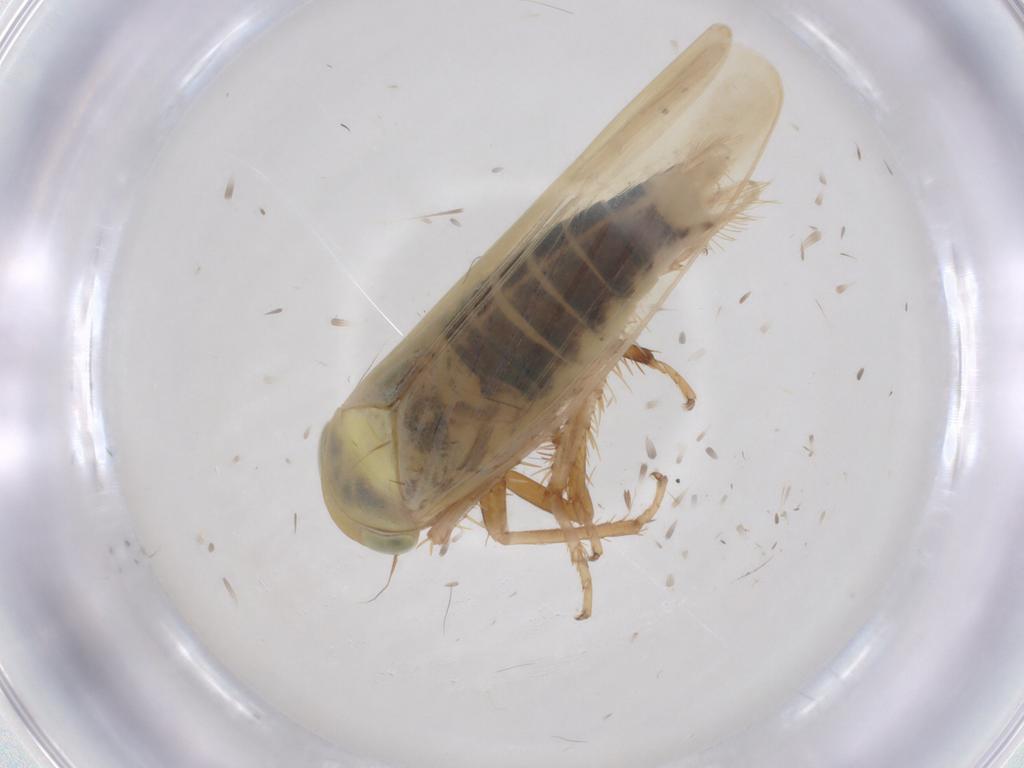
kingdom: Animalia
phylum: Arthropoda
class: Insecta
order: Hemiptera
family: Cicadellidae
